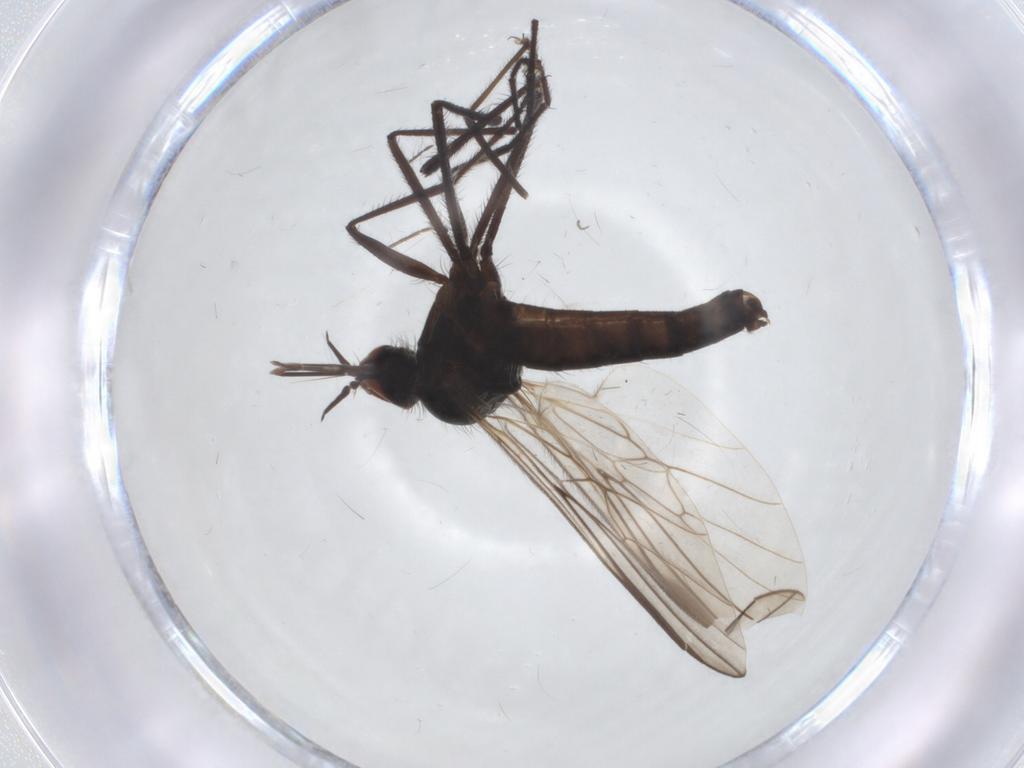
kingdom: Animalia
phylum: Arthropoda
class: Insecta
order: Diptera
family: Empididae
